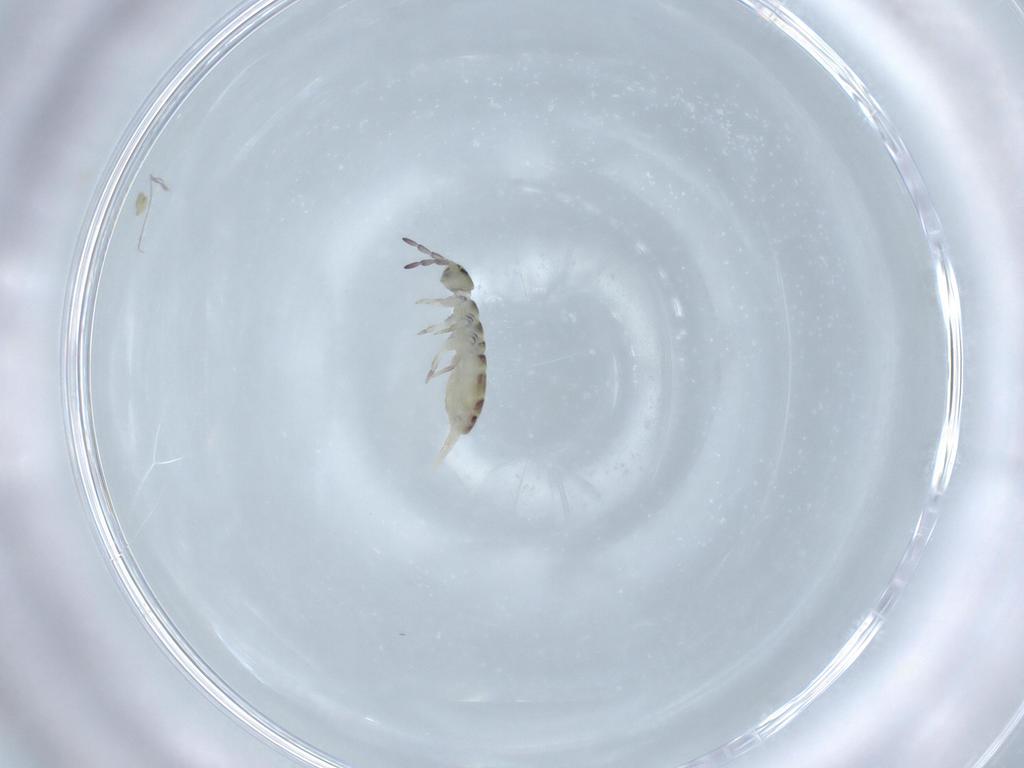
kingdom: Animalia
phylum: Arthropoda
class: Collembola
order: Entomobryomorpha
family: Isotomidae
